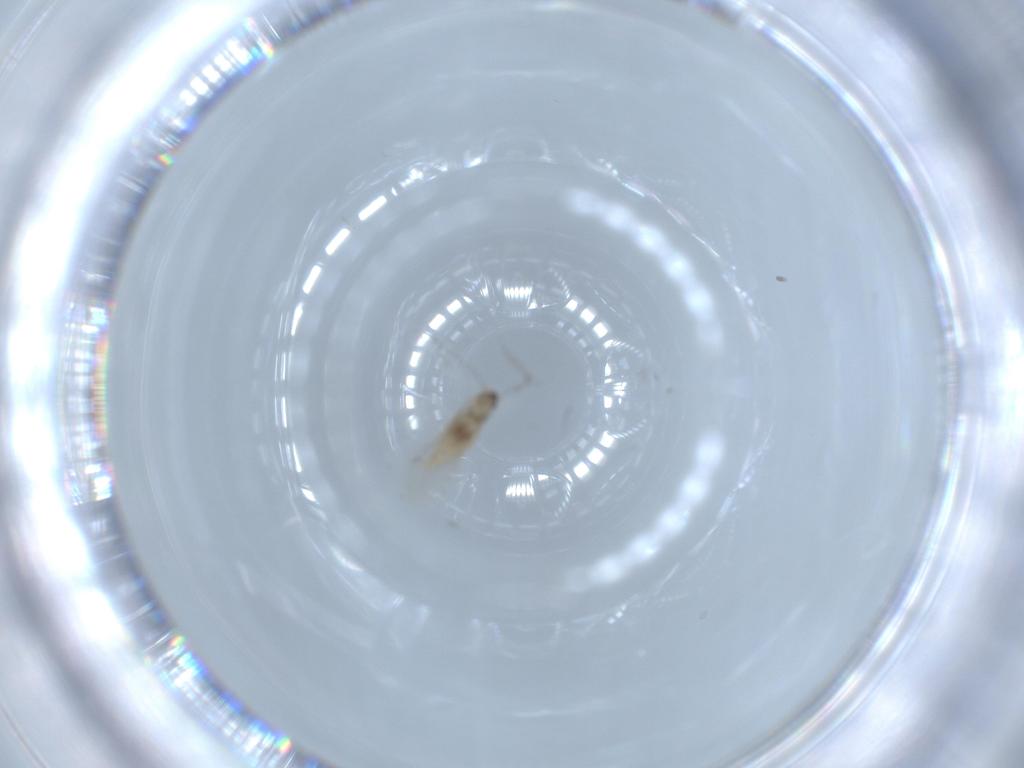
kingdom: Animalia
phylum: Arthropoda
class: Insecta
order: Diptera
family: Cecidomyiidae
